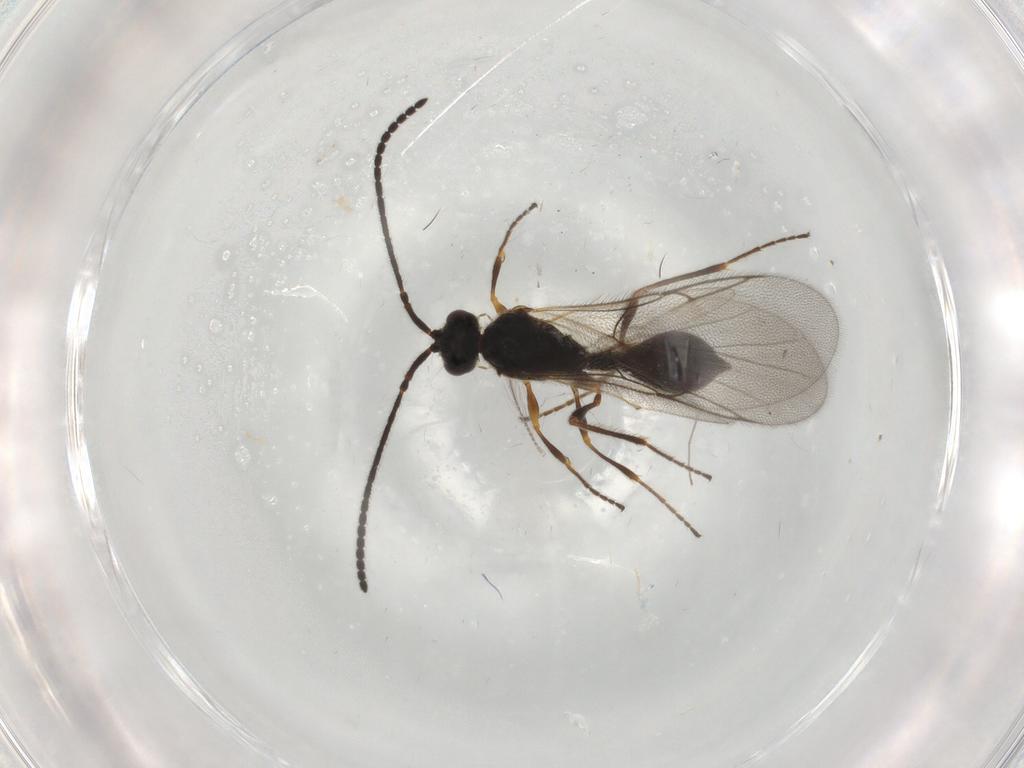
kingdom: Animalia
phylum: Arthropoda
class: Insecta
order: Hymenoptera
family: Diapriidae
